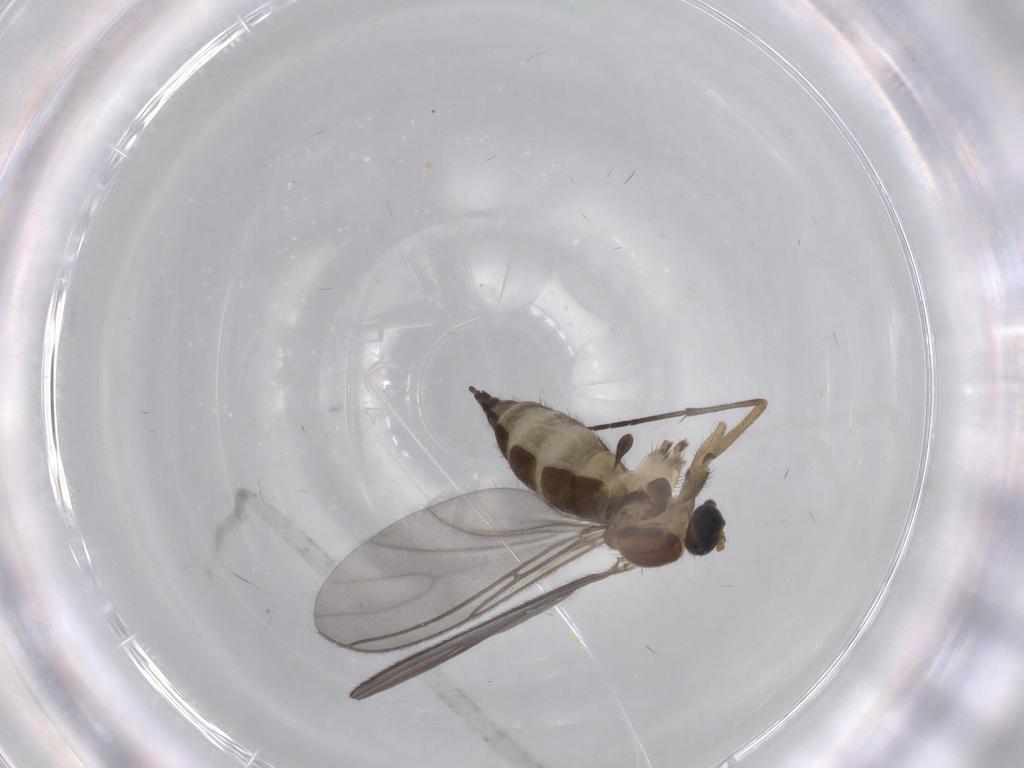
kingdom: Animalia
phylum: Arthropoda
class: Insecta
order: Diptera
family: Sciaridae
